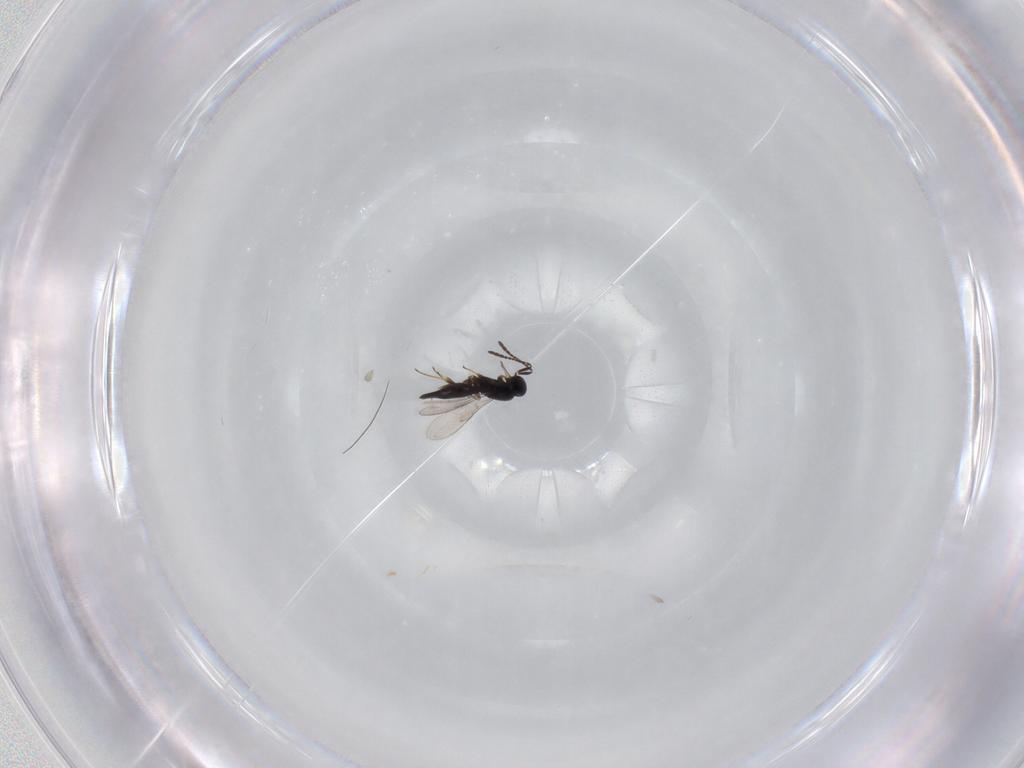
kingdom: Animalia
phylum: Arthropoda
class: Insecta
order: Hymenoptera
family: Scelionidae
